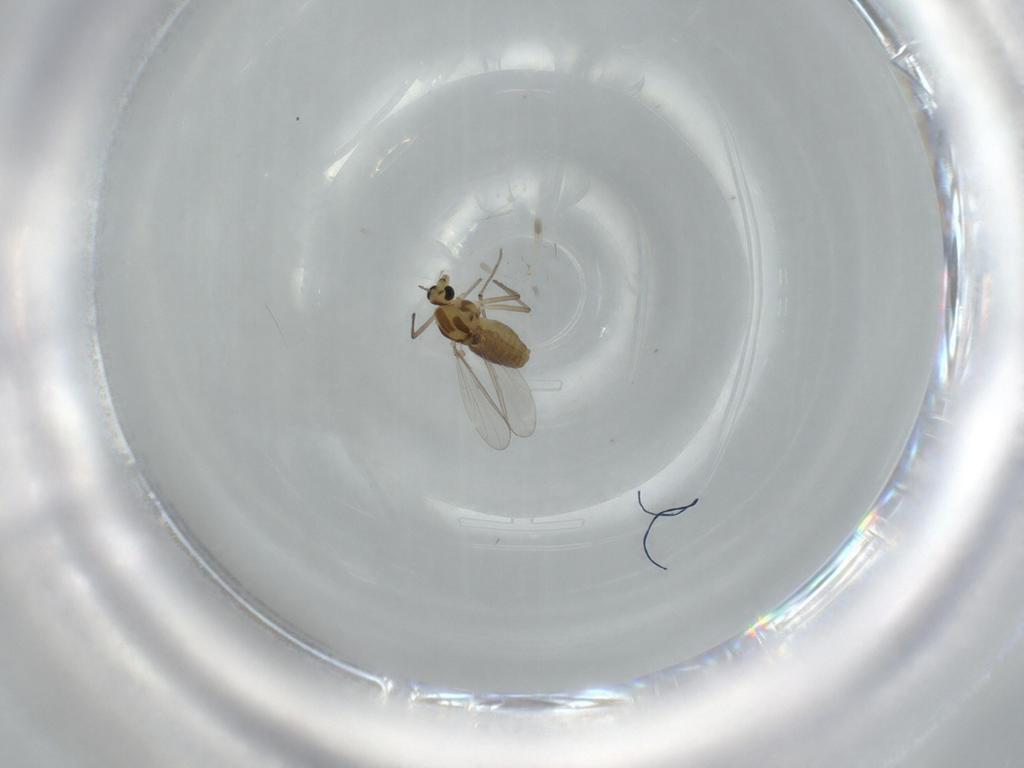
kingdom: Animalia
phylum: Arthropoda
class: Insecta
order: Diptera
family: Chironomidae
